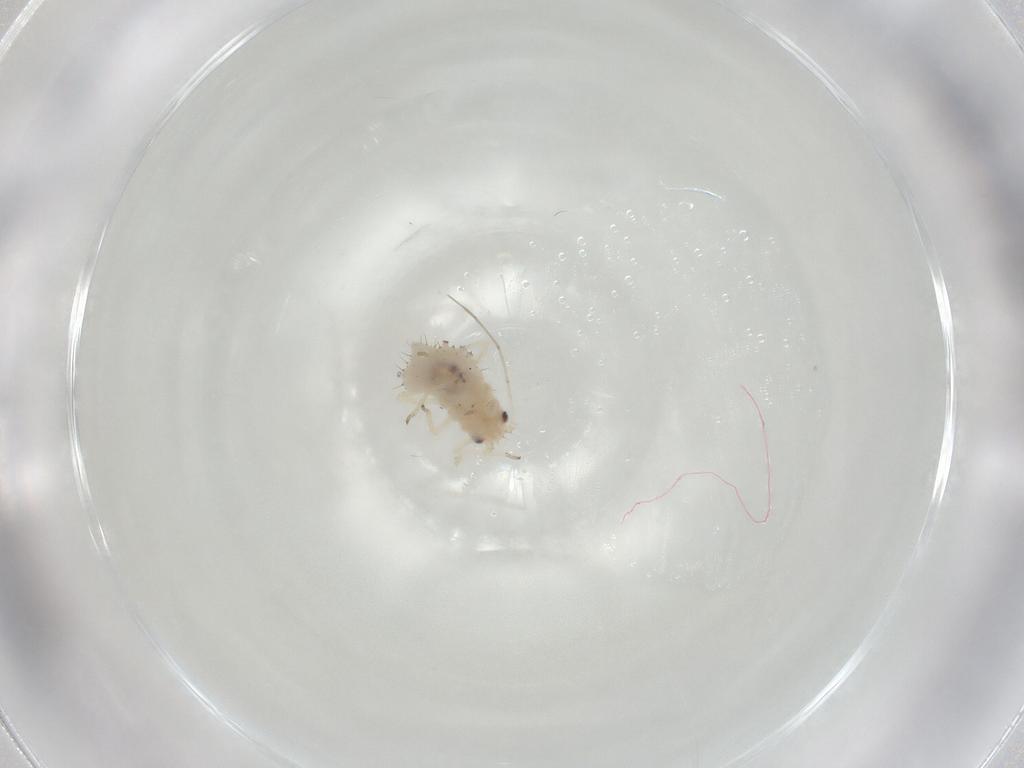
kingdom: Animalia
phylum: Arthropoda
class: Insecta
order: Hemiptera
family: Aphididae
